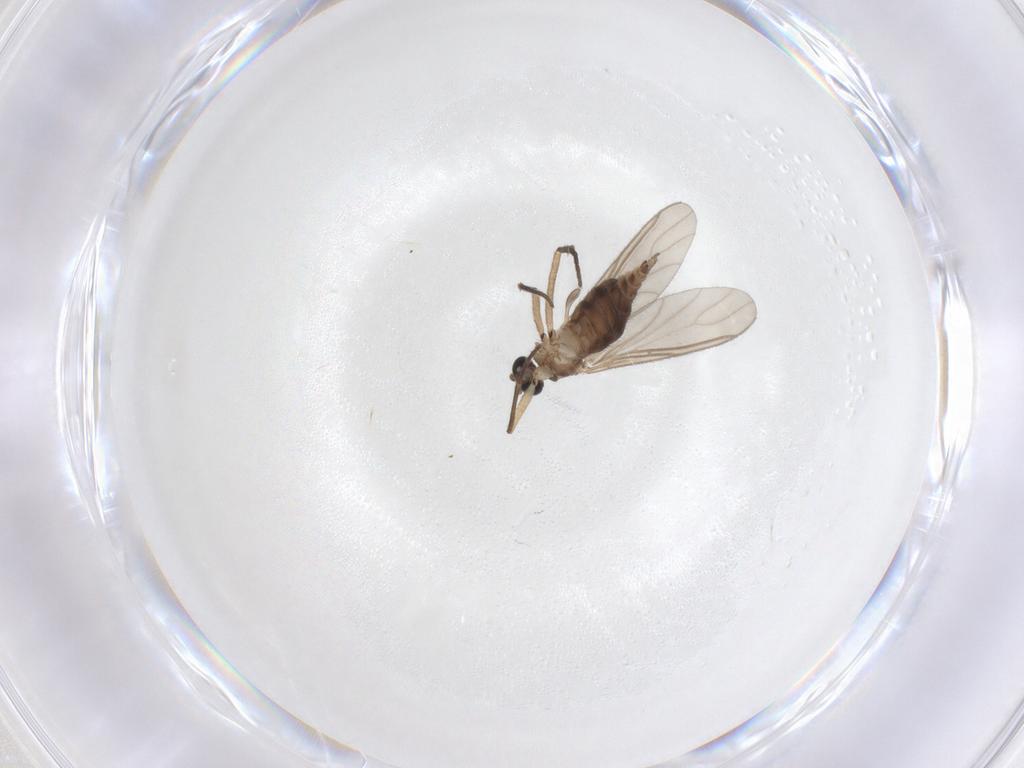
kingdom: Animalia
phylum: Arthropoda
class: Insecta
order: Diptera
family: Sciaridae
